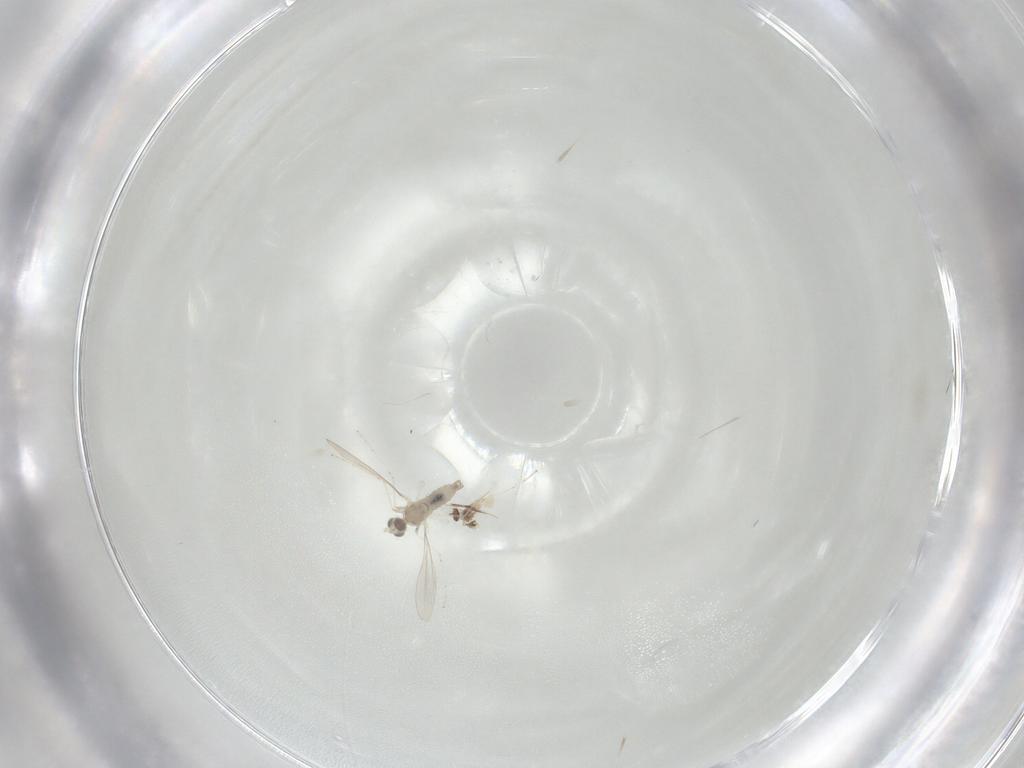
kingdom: Animalia
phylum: Arthropoda
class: Insecta
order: Diptera
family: Cecidomyiidae
